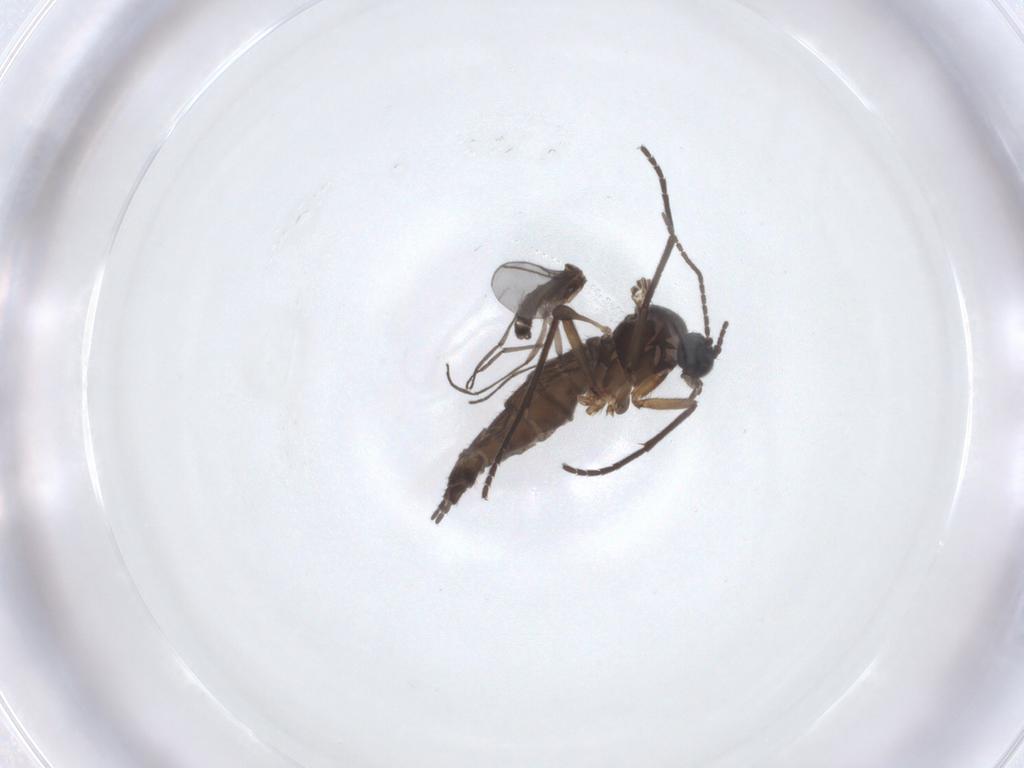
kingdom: Animalia
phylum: Arthropoda
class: Insecta
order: Diptera
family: Sciaridae
